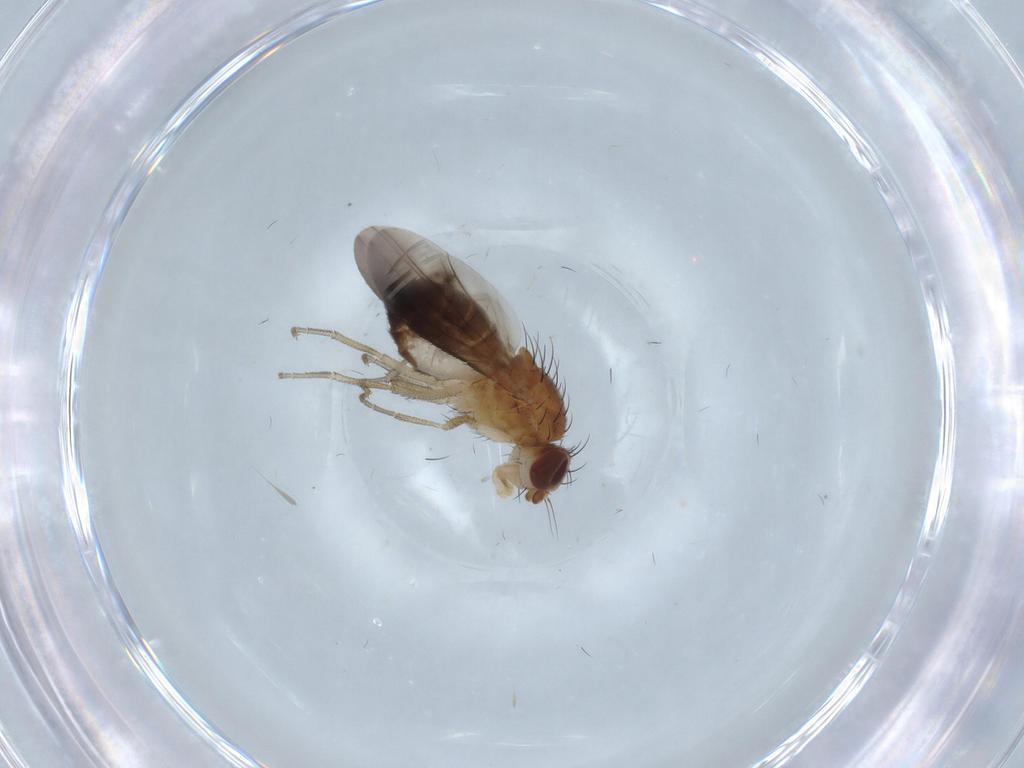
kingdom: Animalia
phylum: Arthropoda
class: Insecta
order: Diptera
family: Heleomyzidae
